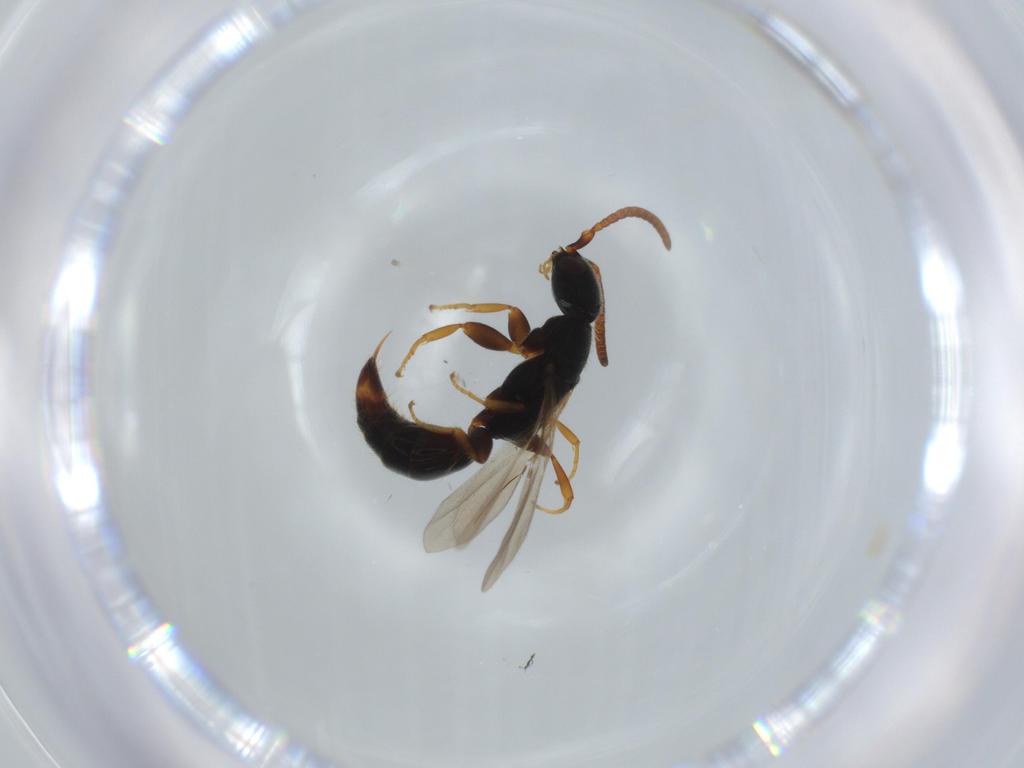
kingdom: Animalia
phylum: Arthropoda
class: Insecta
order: Hymenoptera
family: Bethylidae
